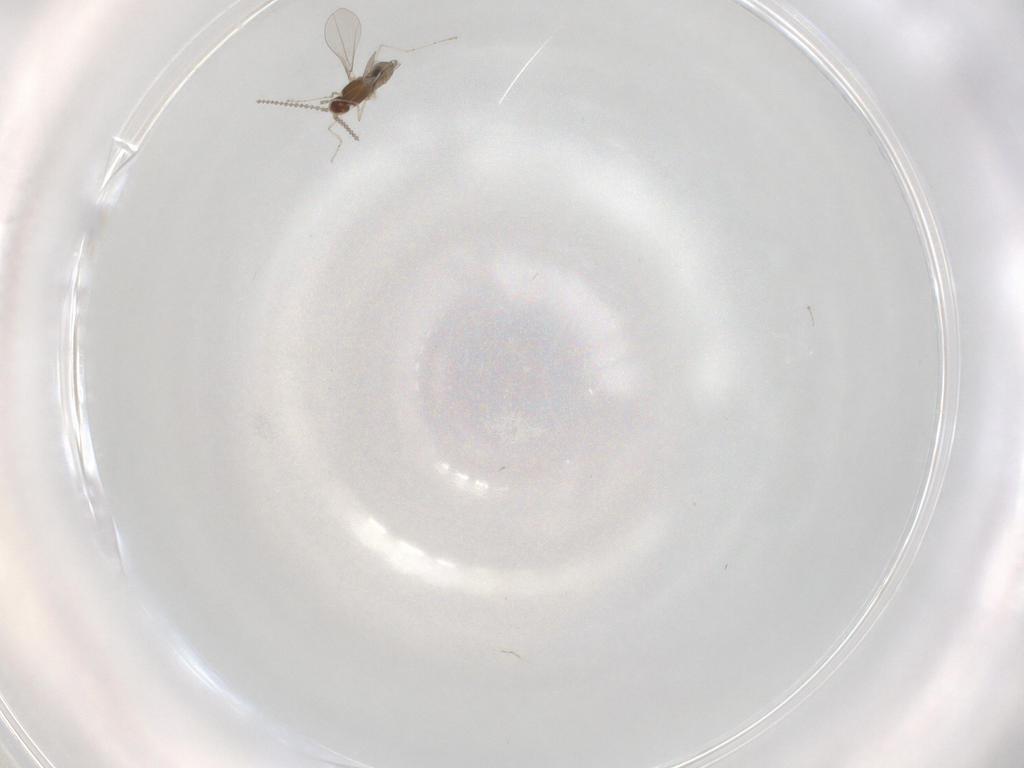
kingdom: Animalia
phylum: Arthropoda
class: Insecta
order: Diptera
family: Cecidomyiidae
